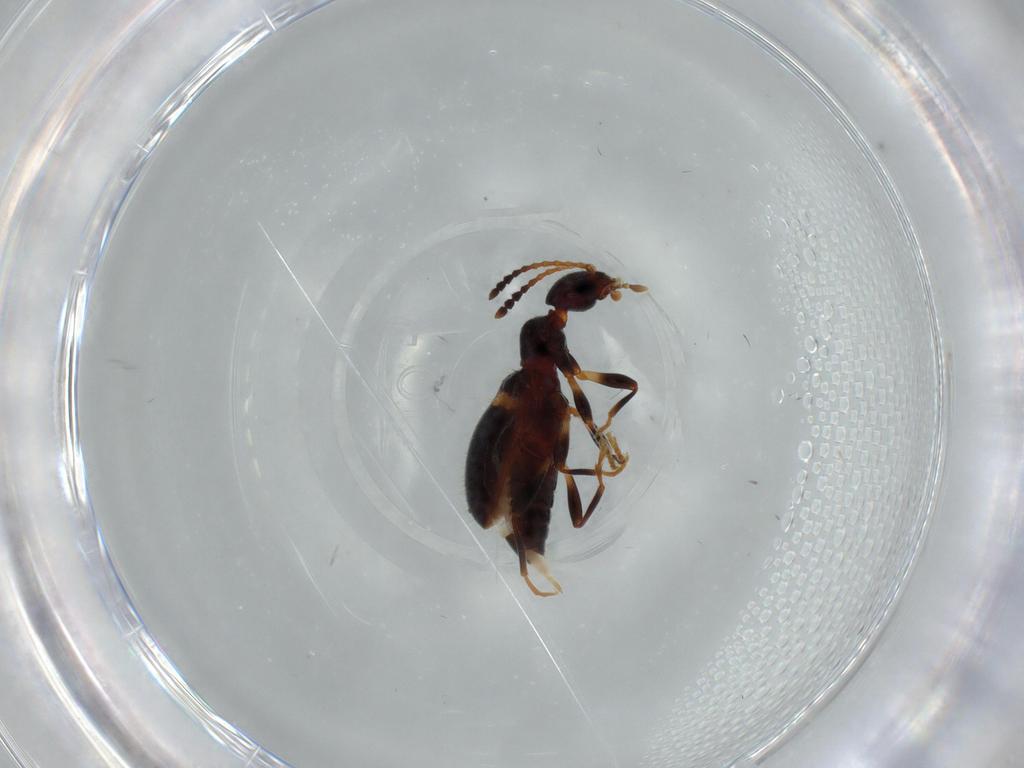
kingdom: Animalia
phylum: Arthropoda
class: Insecta
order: Coleoptera
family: Anthicidae
